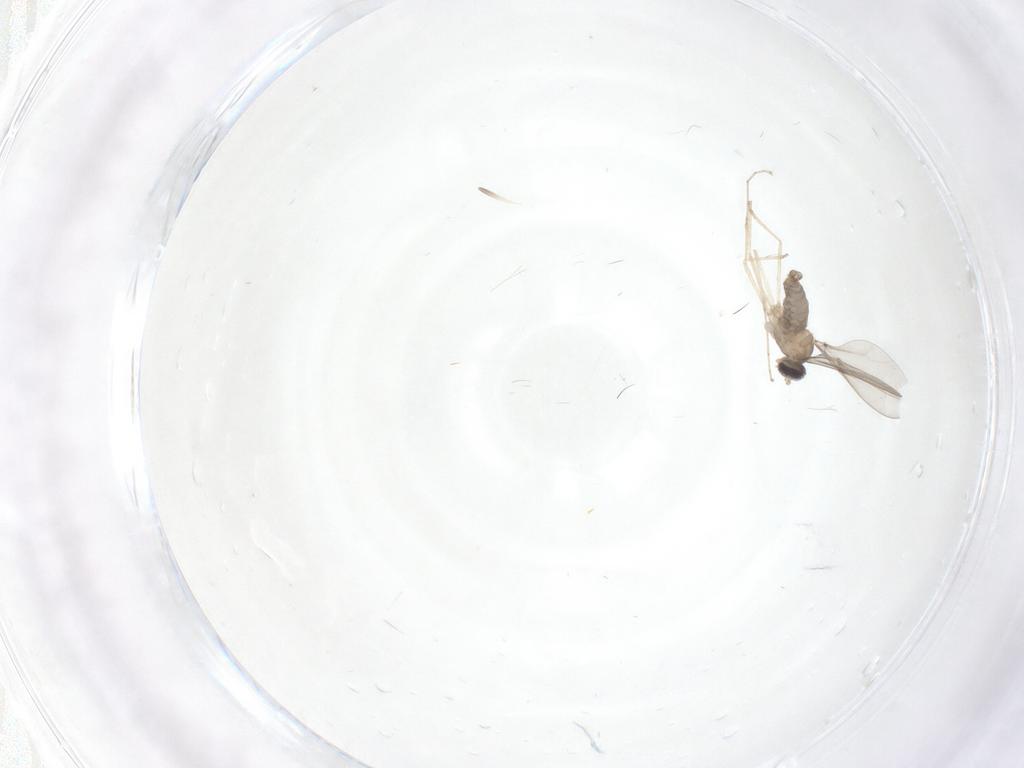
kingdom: Animalia
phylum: Arthropoda
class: Insecta
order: Diptera
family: Cecidomyiidae
